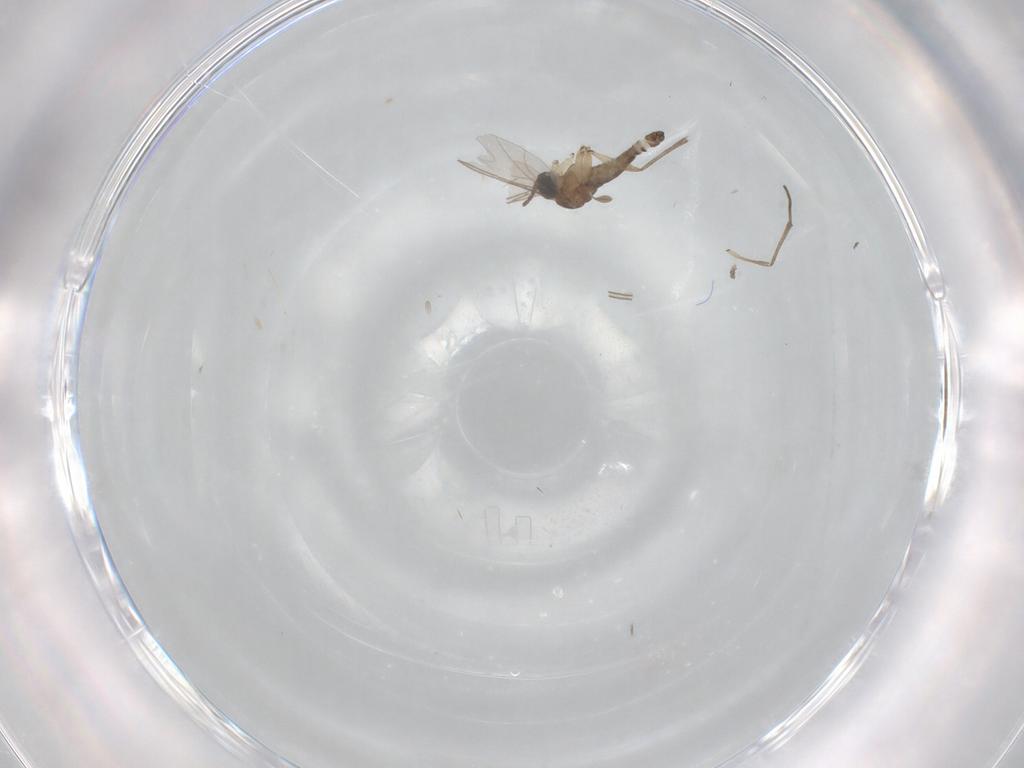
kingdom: Animalia
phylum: Arthropoda
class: Insecta
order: Diptera
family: Sciaridae
